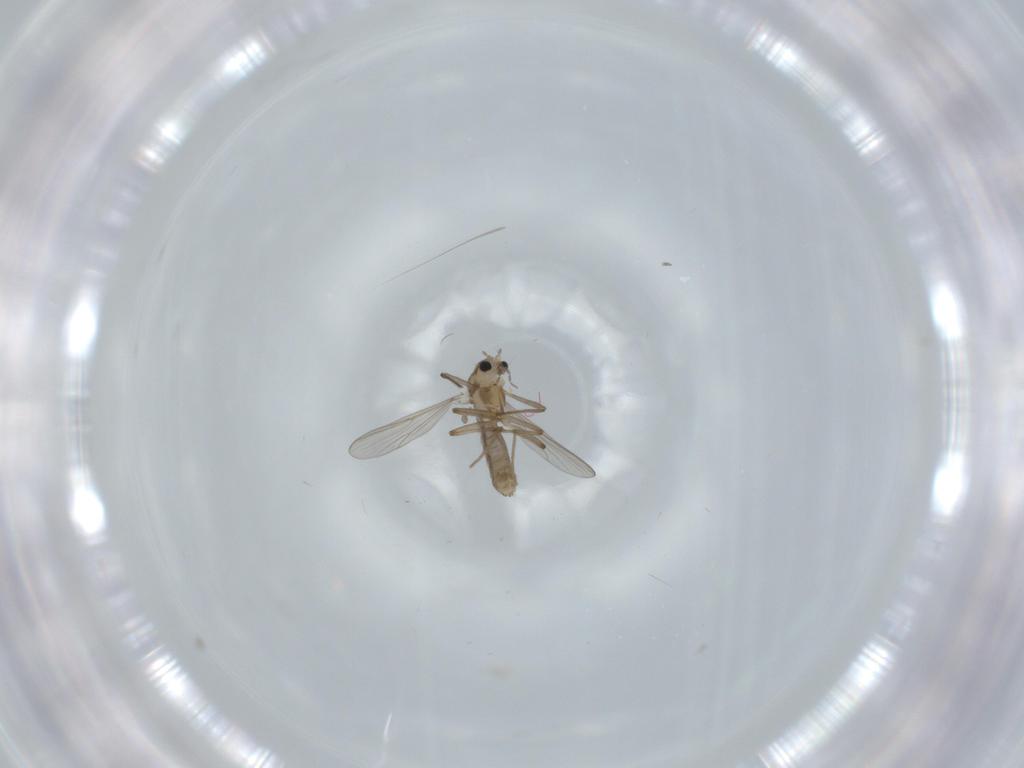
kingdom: Animalia
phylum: Arthropoda
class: Insecta
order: Diptera
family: Chironomidae
